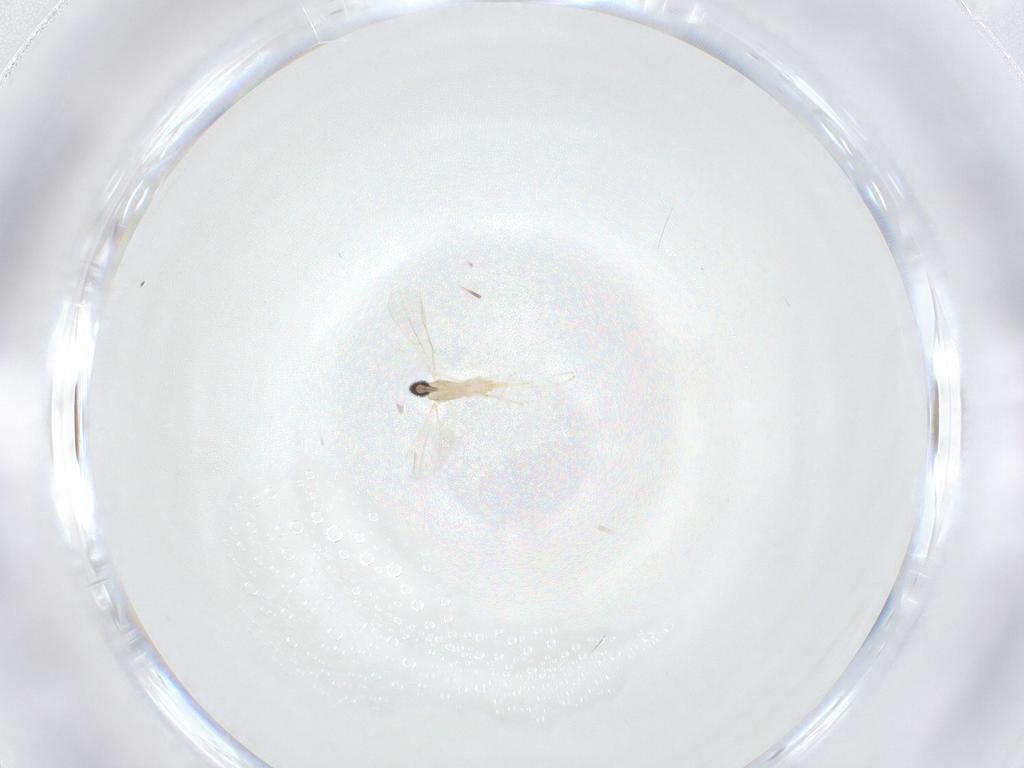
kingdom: Animalia
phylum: Arthropoda
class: Insecta
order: Diptera
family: Cecidomyiidae
